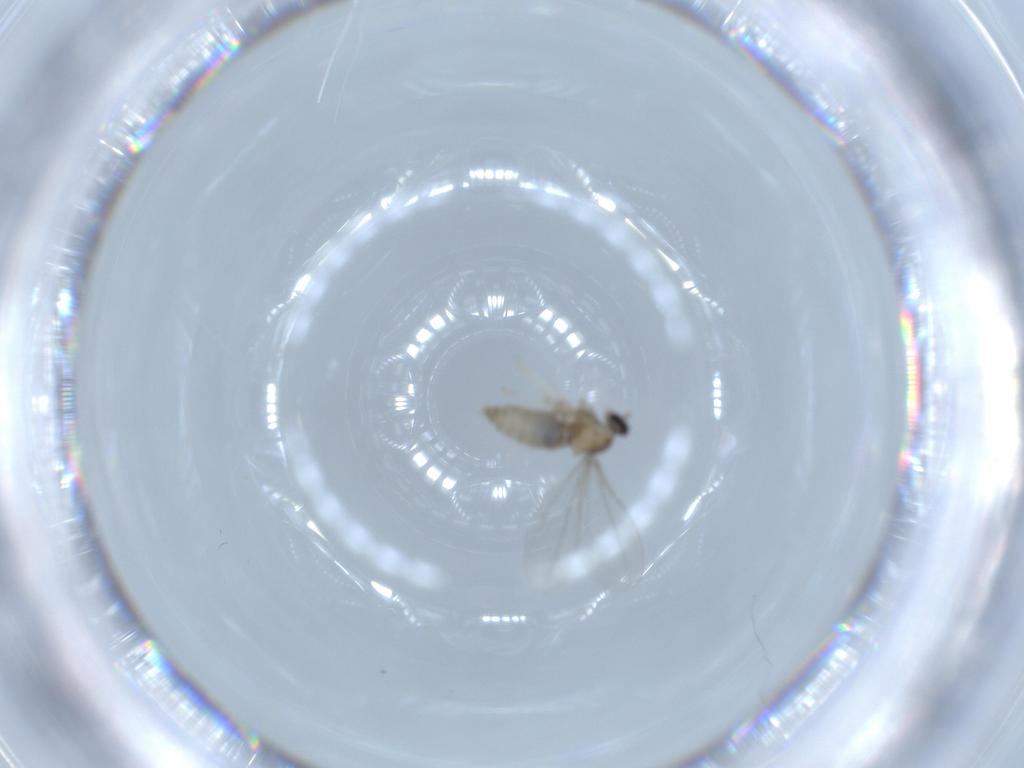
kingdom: Animalia
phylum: Arthropoda
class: Insecta
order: Diptera
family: Cecidomyiidae
